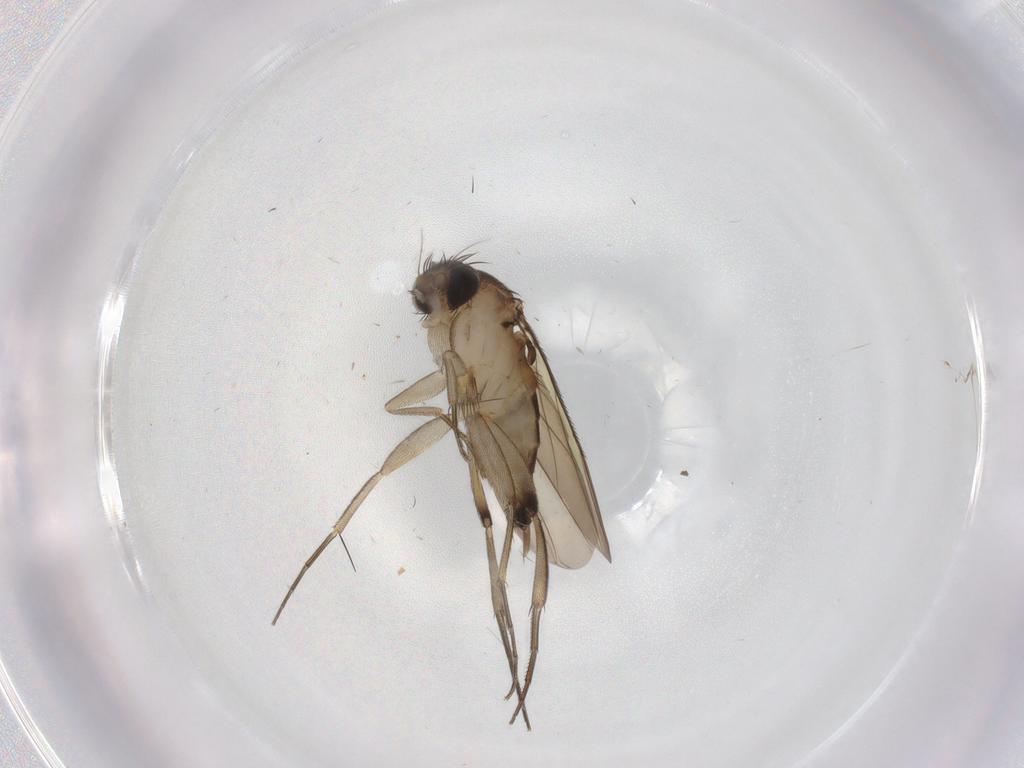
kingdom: Animalia
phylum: Arthropoda
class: Insecta
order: Diptera
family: Phoridae
